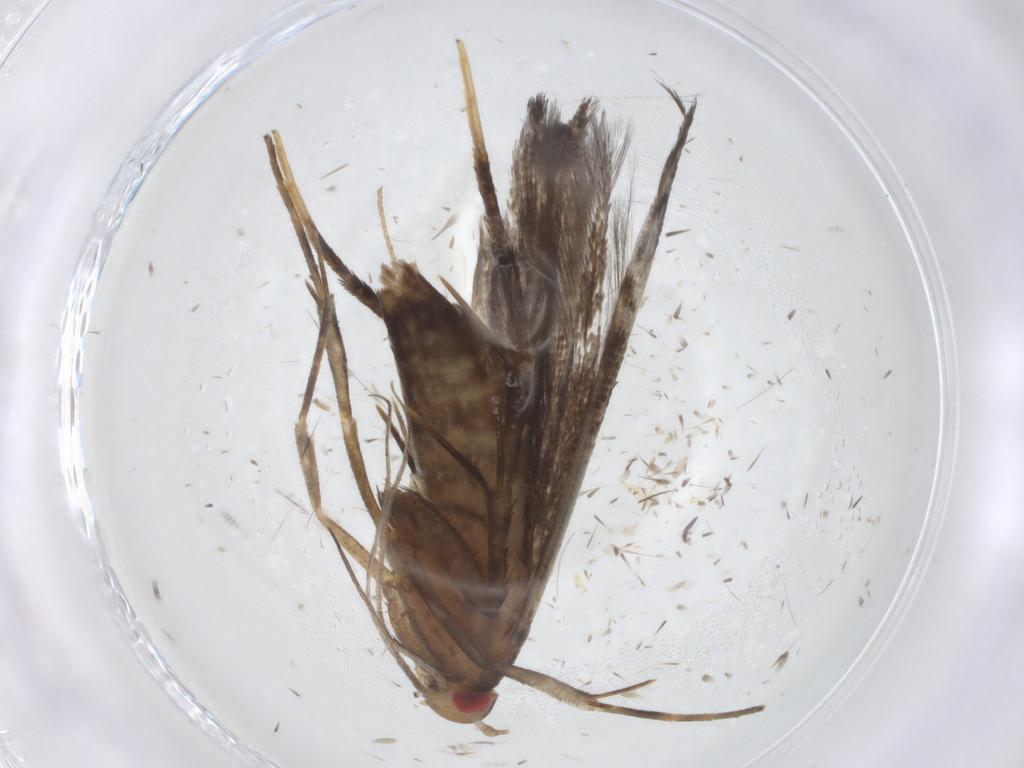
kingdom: Animalia
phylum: Arthropoda
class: Insecta
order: Lepidoptera
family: Cosmopterigidae
